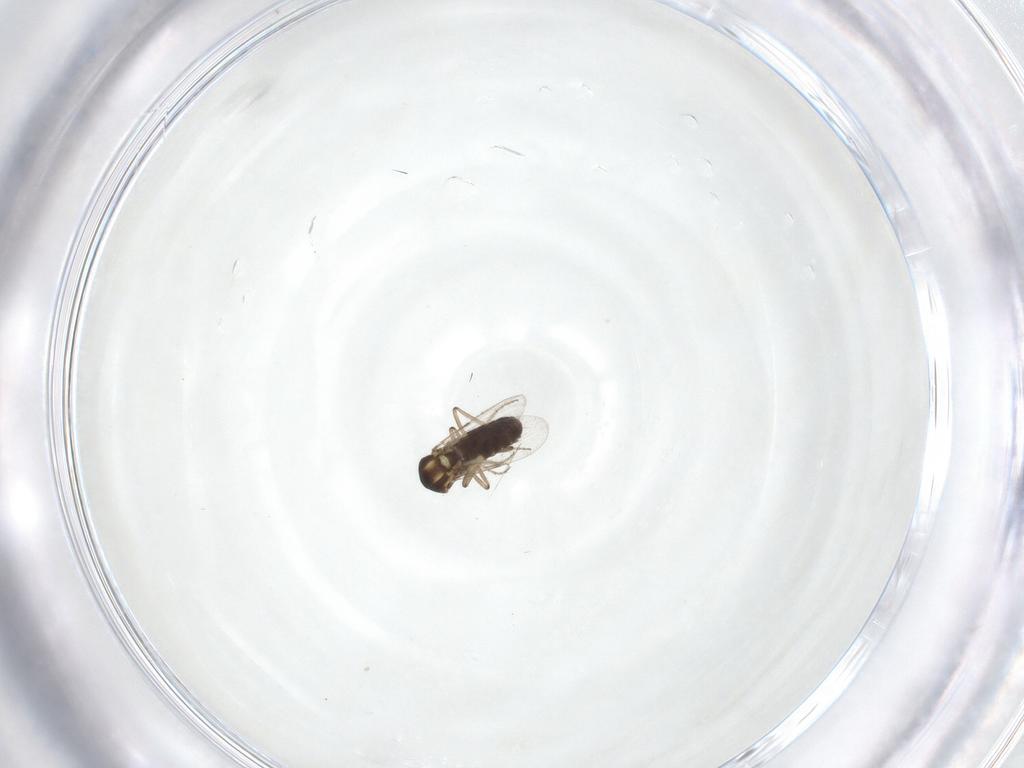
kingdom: Animalia
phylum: Arthropoda
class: Insecta
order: Diptera
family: Ceratopogonidae
